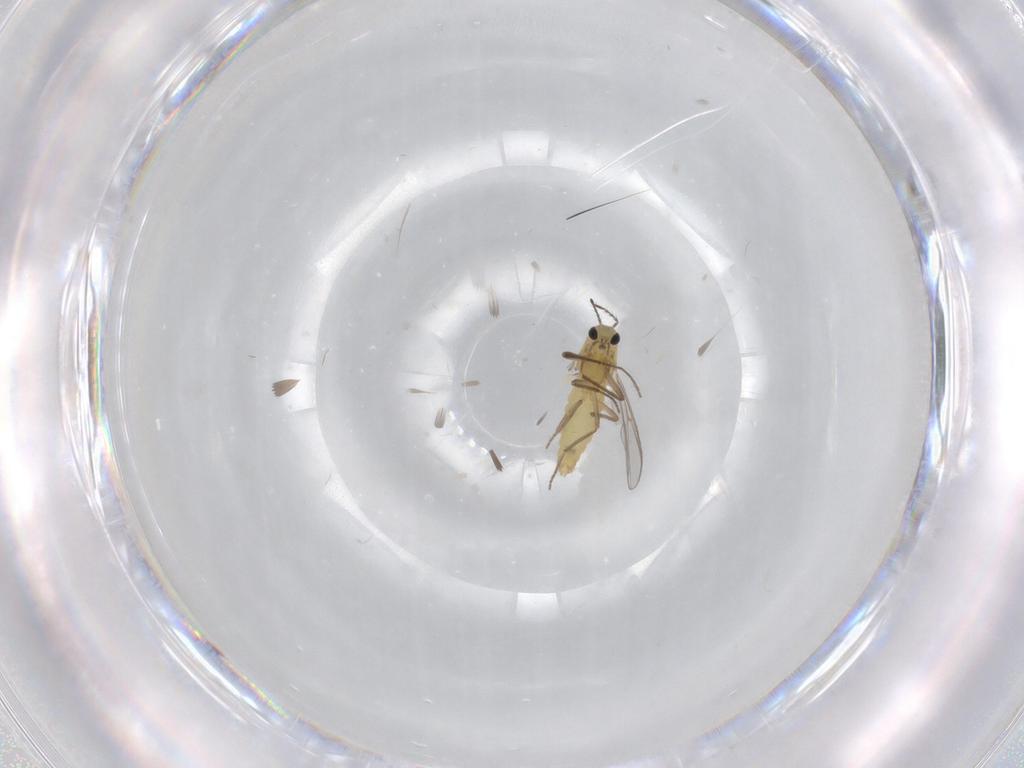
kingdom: Animalia
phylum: Arthropoda
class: Insecta
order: Diptera
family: Chironomidae
